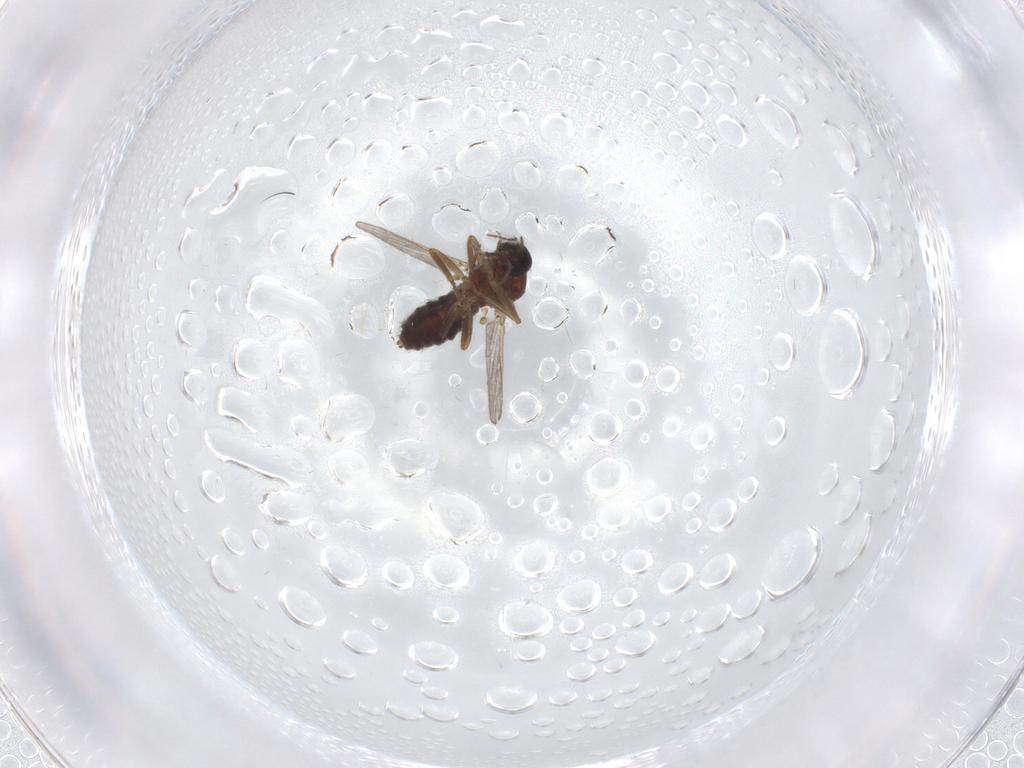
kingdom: Animalia
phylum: Arthropoda
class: Insecta
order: Diptera
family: Ceratopogonidae
